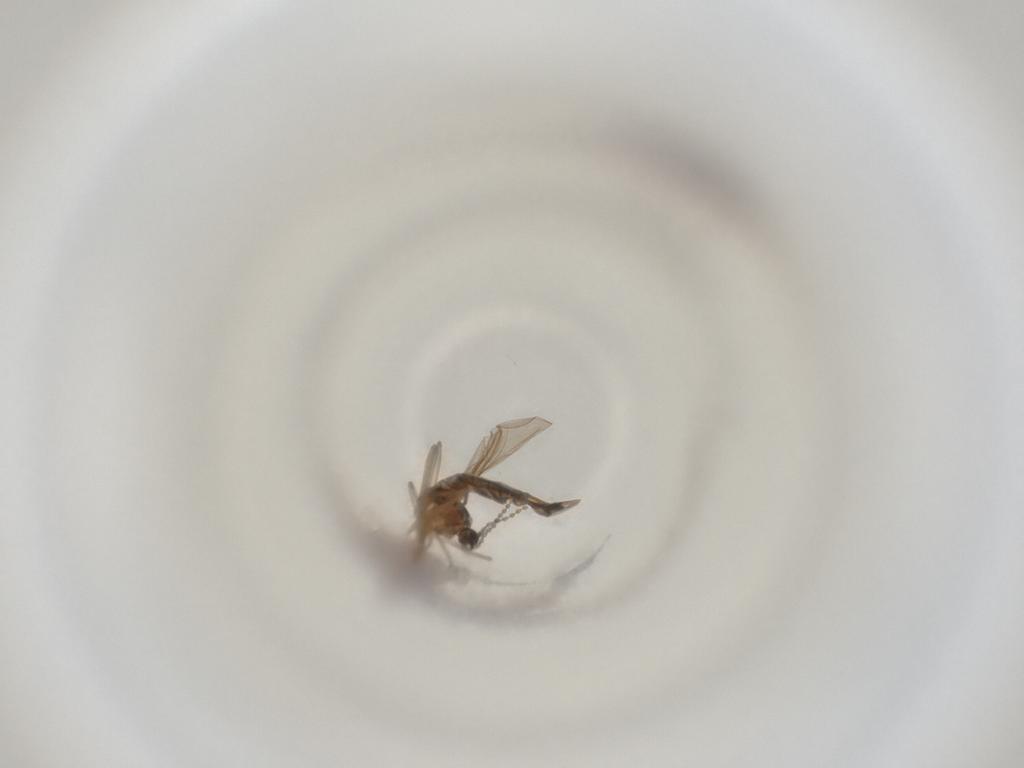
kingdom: Animalia
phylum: Arthropoda
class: Insecta
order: Diptera
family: Cecidomyiidae
